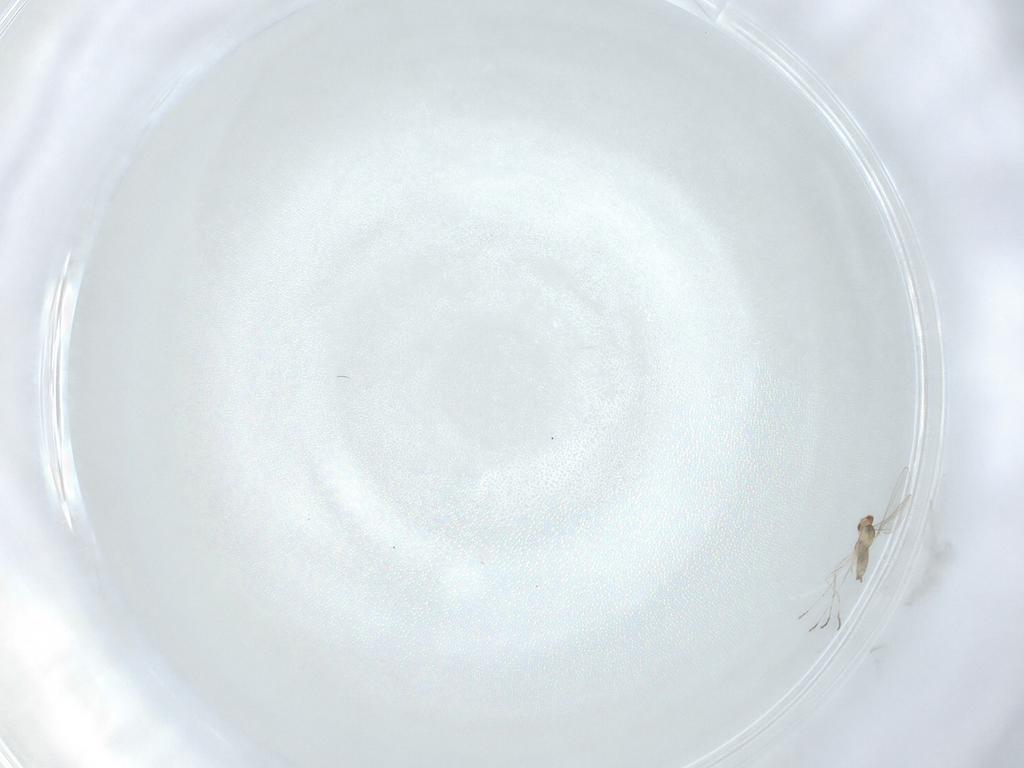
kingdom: Animalia
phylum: Arthropoda
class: Insecta
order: Diptera
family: Cecidomyiidae
